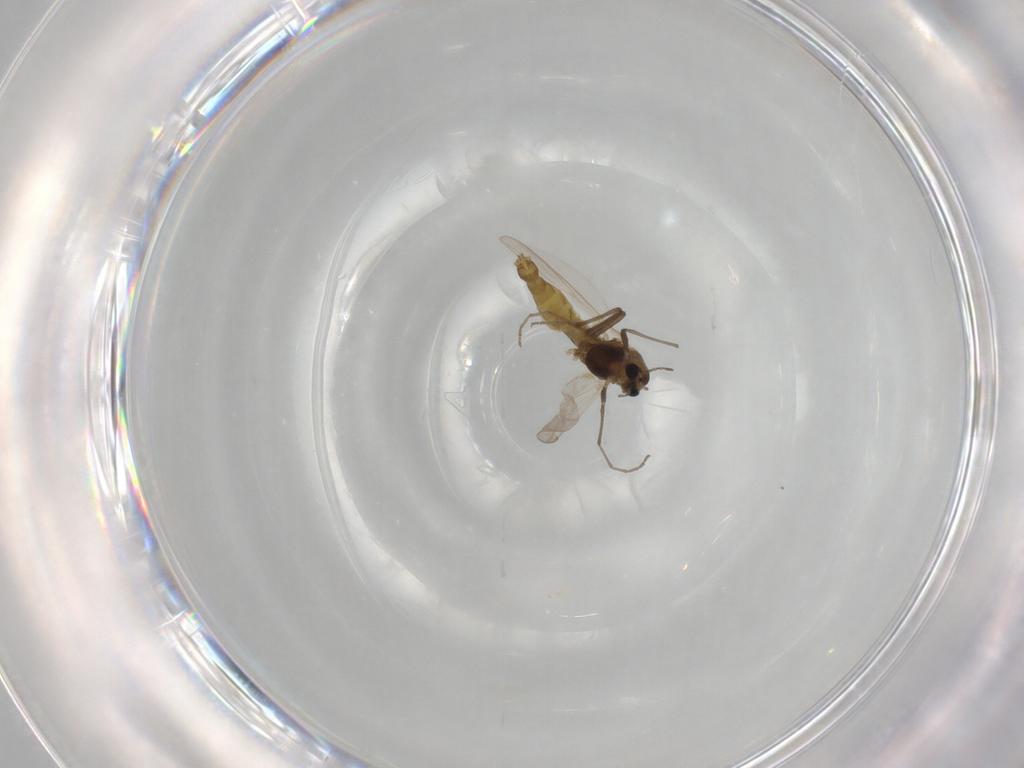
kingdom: Animalia
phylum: Arthropoda
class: Insecta
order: Diptera
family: Chironomidae
